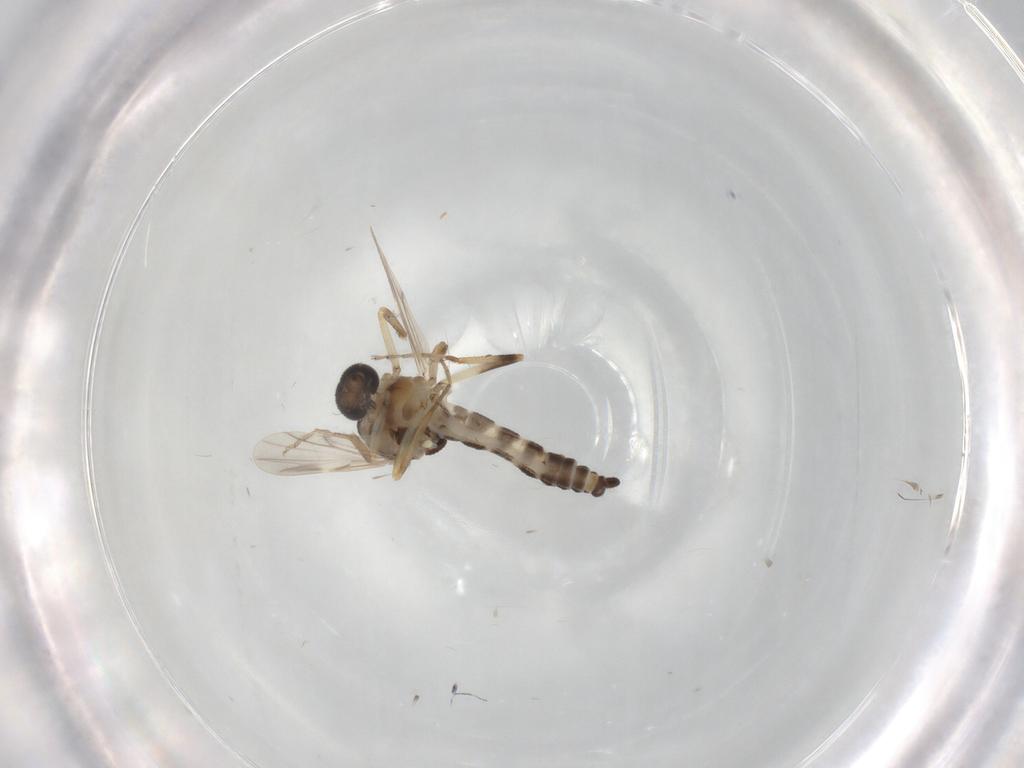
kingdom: Animalia
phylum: Arthropoda
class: Insecta
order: Diptera
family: Ceratopogonidae
